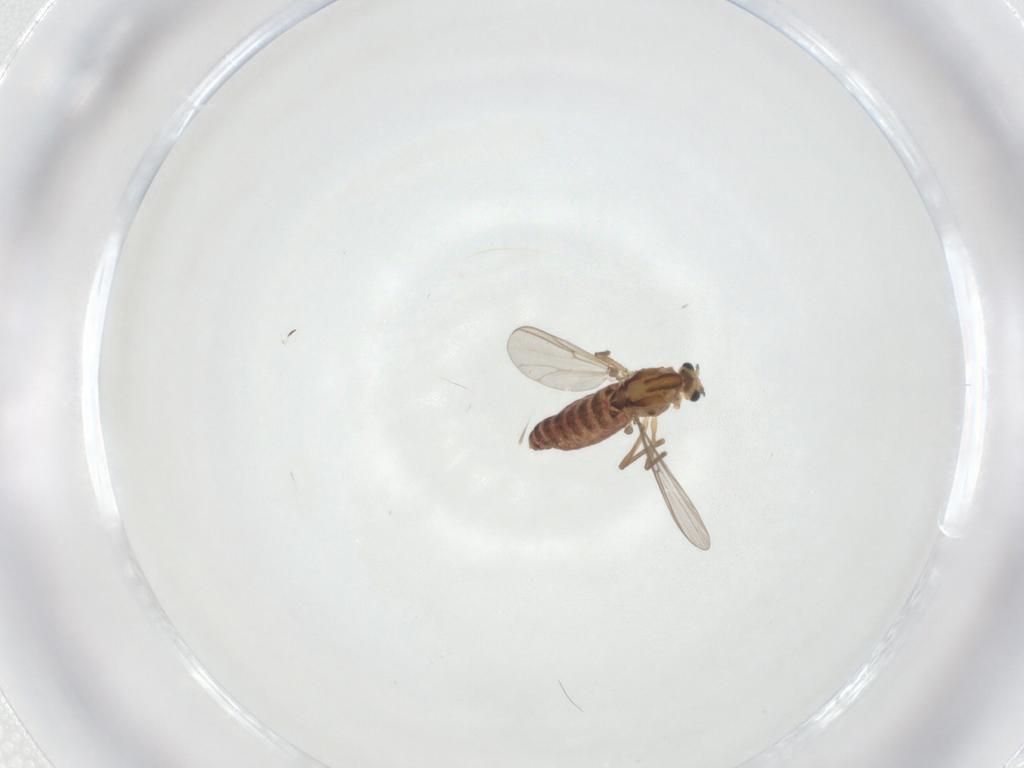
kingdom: Animalia
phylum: Arthropoda
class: Insecta
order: Diptera
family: Chironomidae
